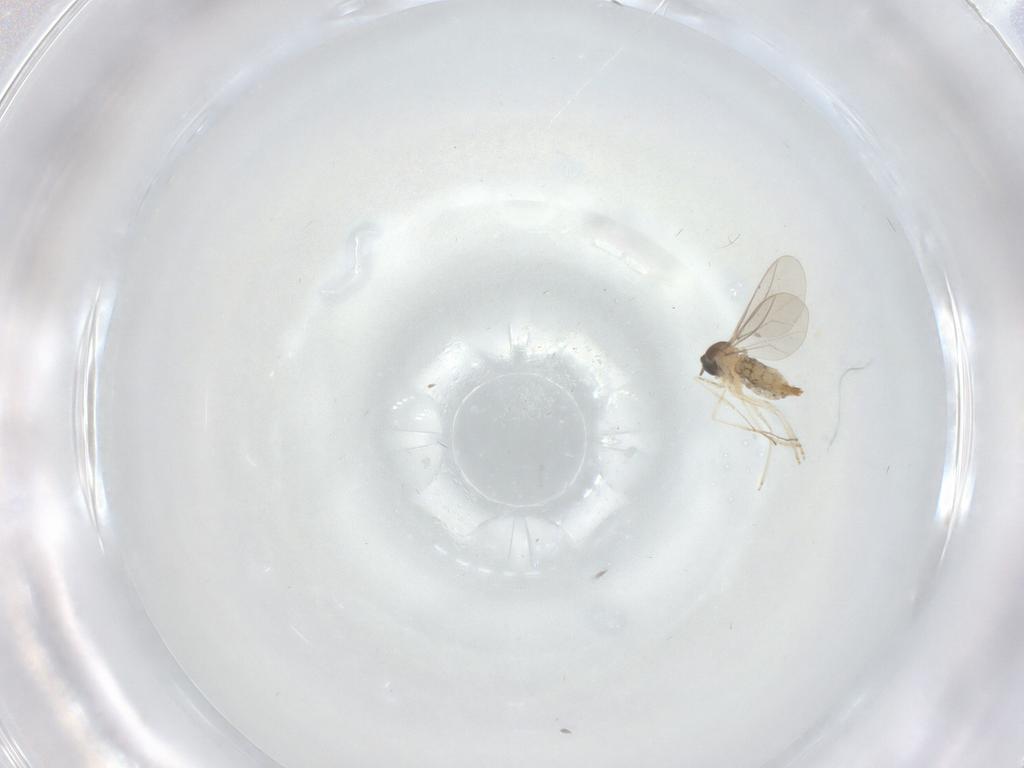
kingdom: Animalia
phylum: Arthropoda
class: Insecta
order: Diptera
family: Cecidomyiidae
